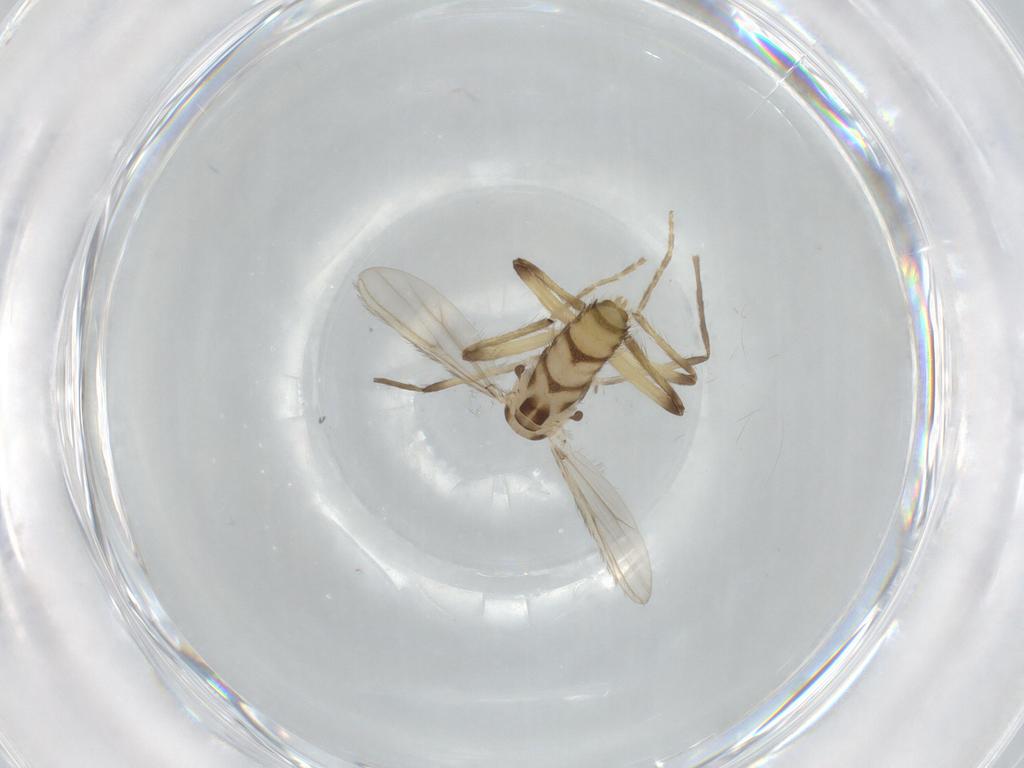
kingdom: Animalia
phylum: Arthropoda
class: Insecta
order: Diptera
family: Chironomidae
